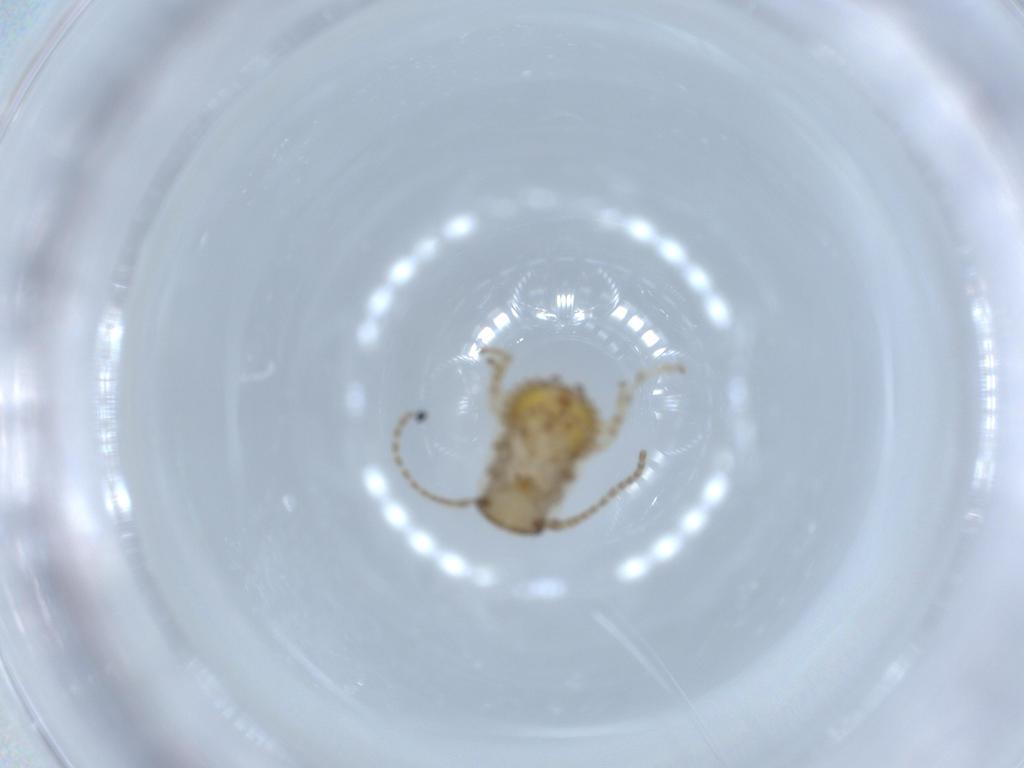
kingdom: Animalia
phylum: Arthropoda
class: Insecta
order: Blattodea
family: Ectobiidae
